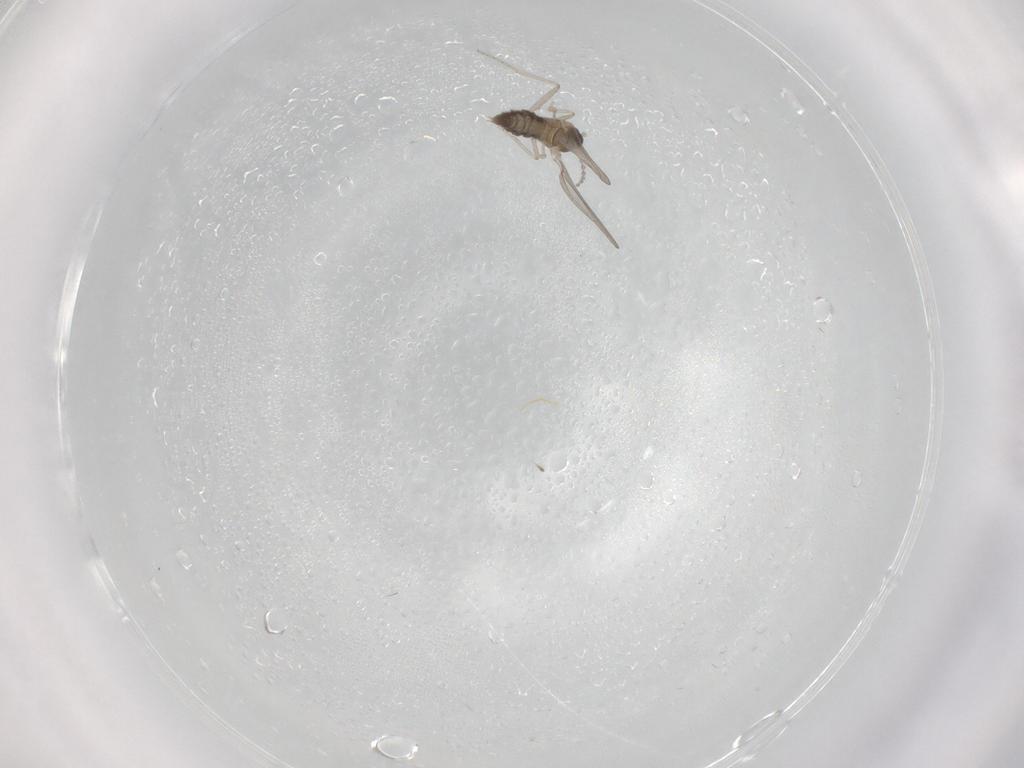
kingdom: Animalia
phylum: Arthropoda
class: Insecta
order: Diptera
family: Cecidomyiidae
